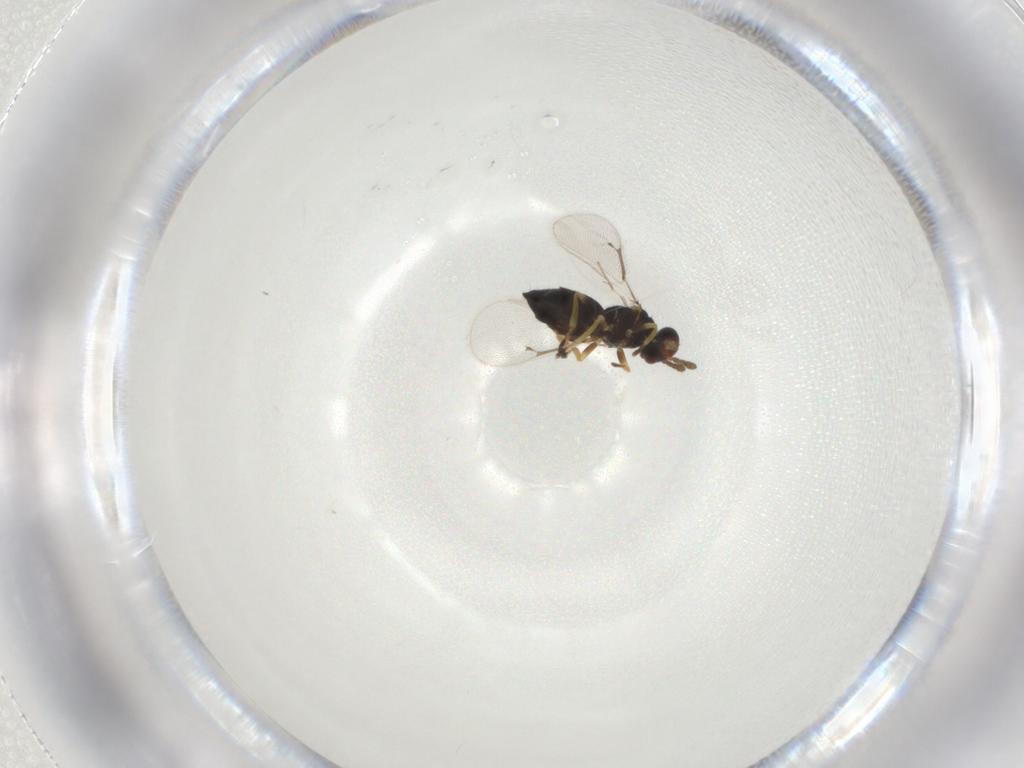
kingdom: Animalia
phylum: Arthropoda
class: Insecta
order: Hymenoptera
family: Eulophidae
